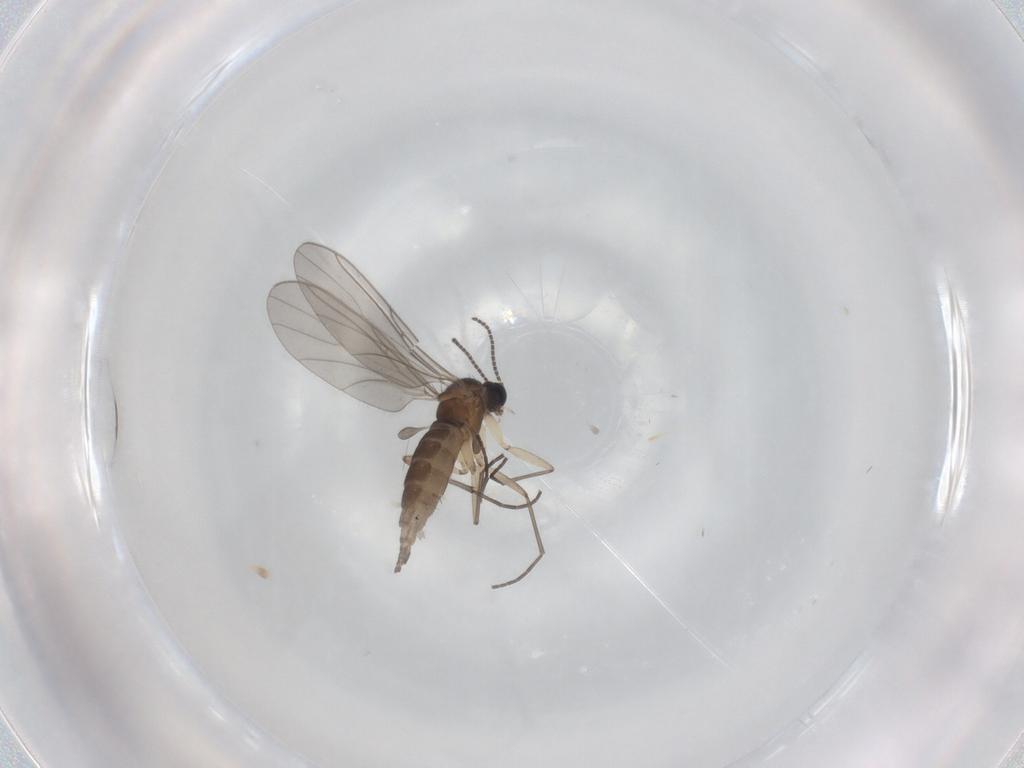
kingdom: Animalia
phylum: Arthropoda
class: Insecta
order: Diptera
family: Sciaridae
